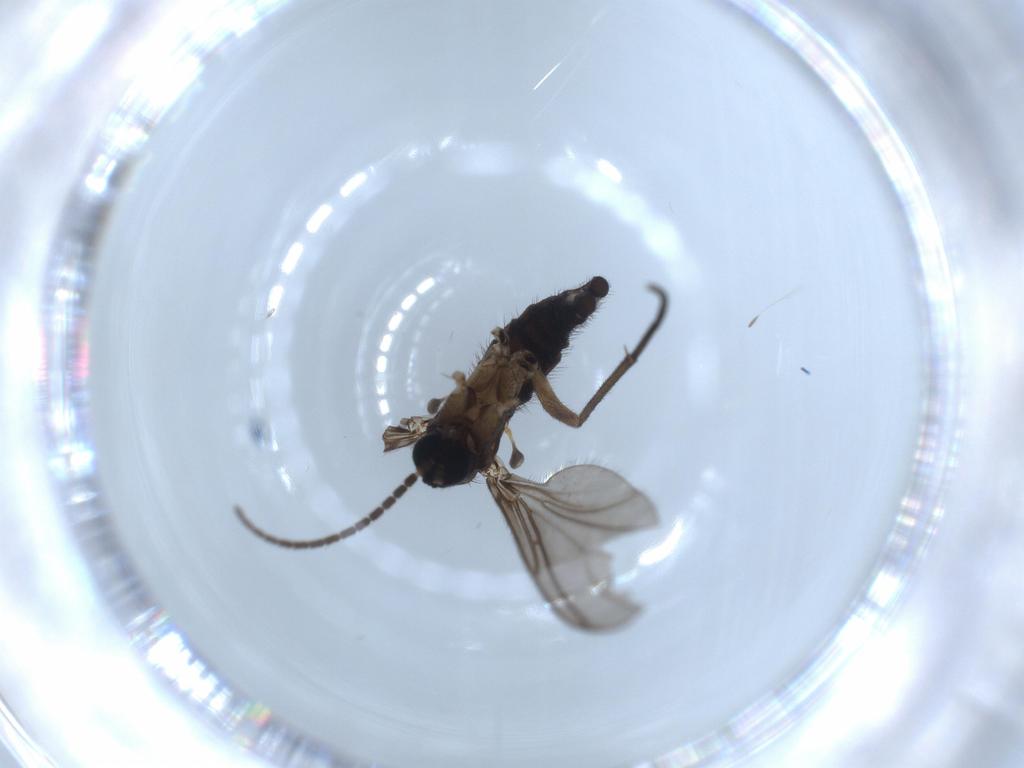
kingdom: Animalia
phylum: Arthropoda
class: Insecta
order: Diptera
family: Sciaridae
